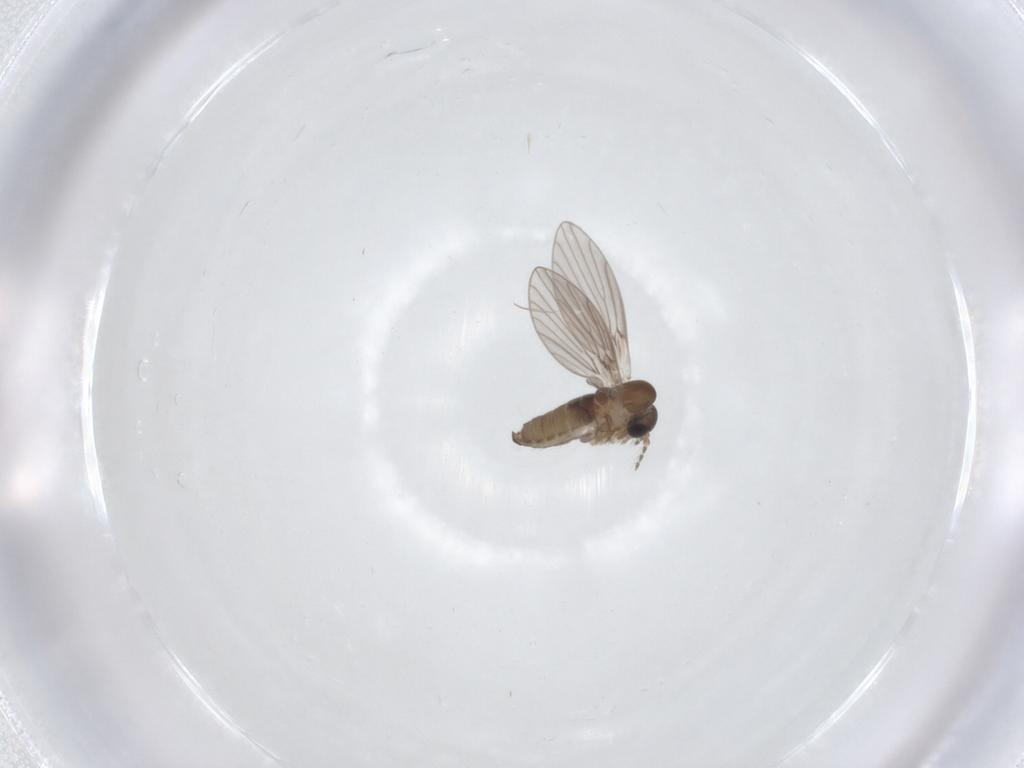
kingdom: Animalia
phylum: Arthropoda
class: Insecta
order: Diptera
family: Psychodidae
